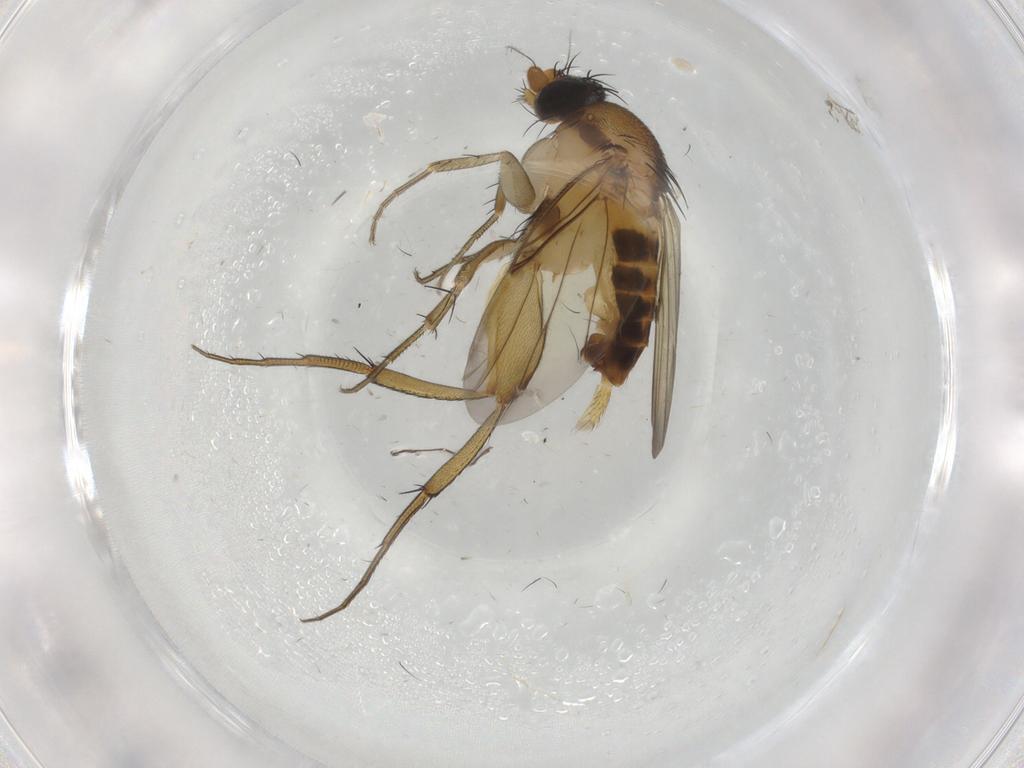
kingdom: Animalia
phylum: Arthropoda
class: Insecta
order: Diptera
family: Phoridae
